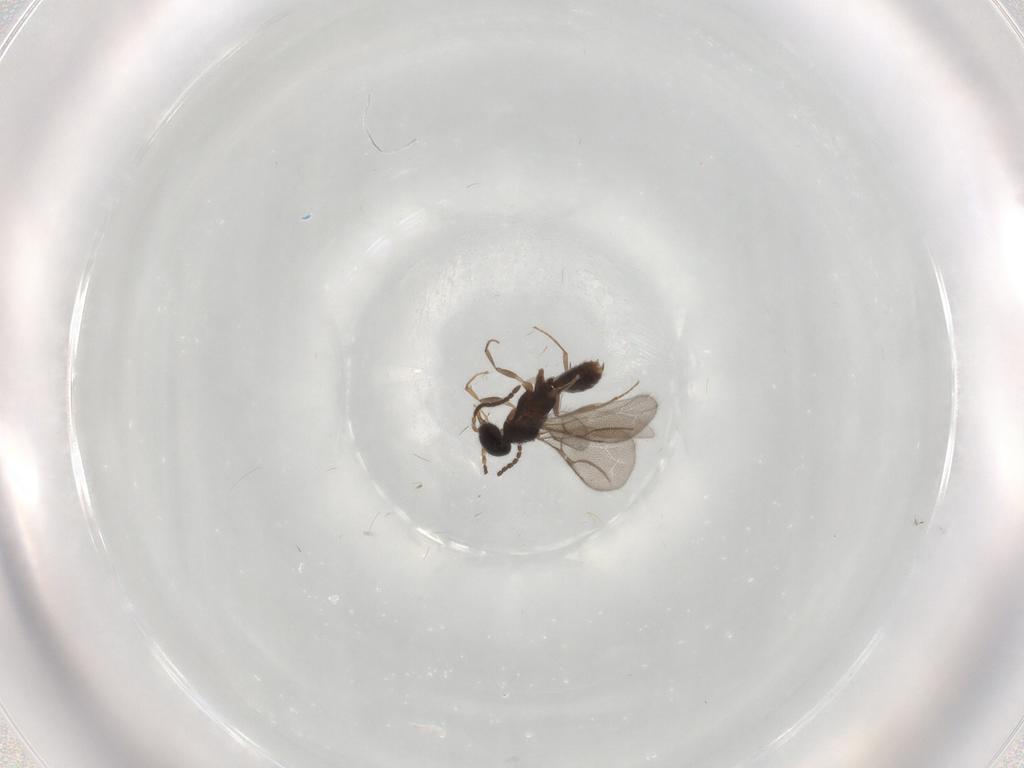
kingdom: Animalia
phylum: Arthropoda
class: Insecta
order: Hymenoptera
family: Bethylidae
